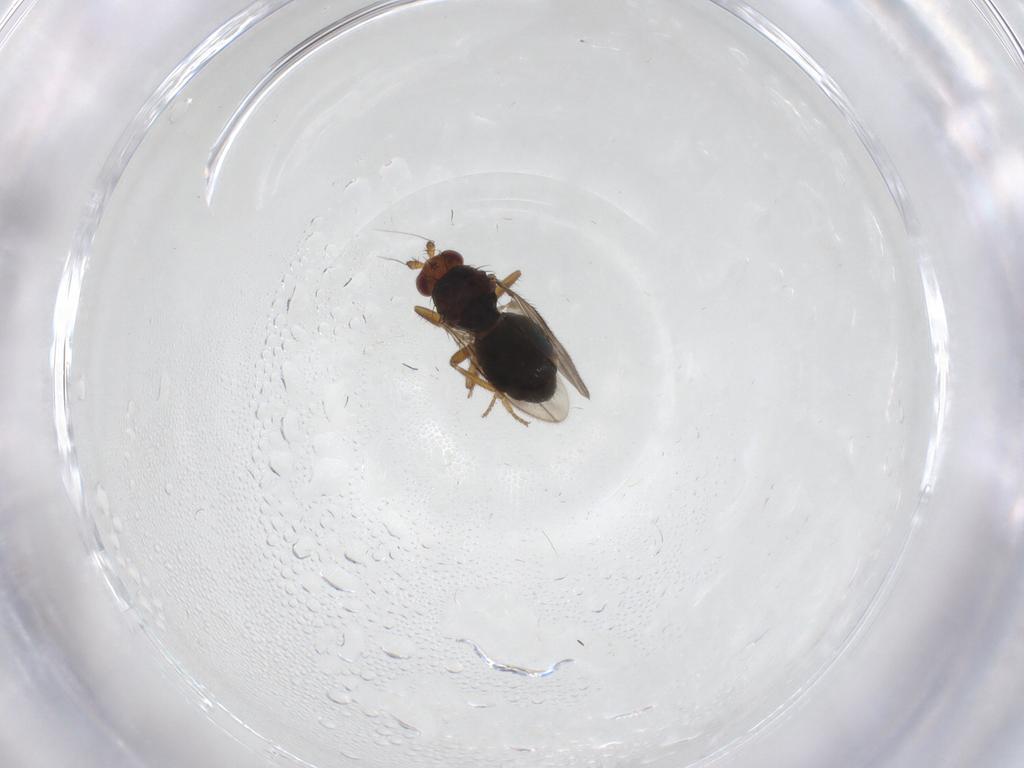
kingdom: Animalia
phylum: Arthropoda
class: Insecta
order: Diptera
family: Sphaeroceridae
